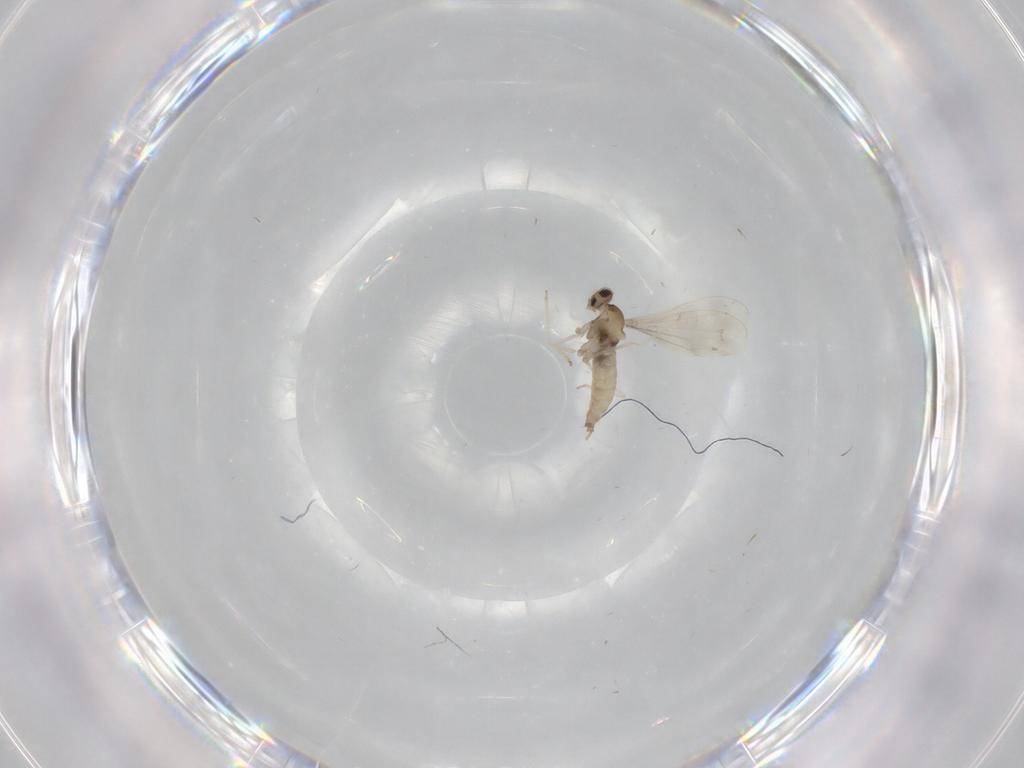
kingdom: Animalia
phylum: Arthropoda
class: Insecta
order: Diptera
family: Cecidomyiidae
